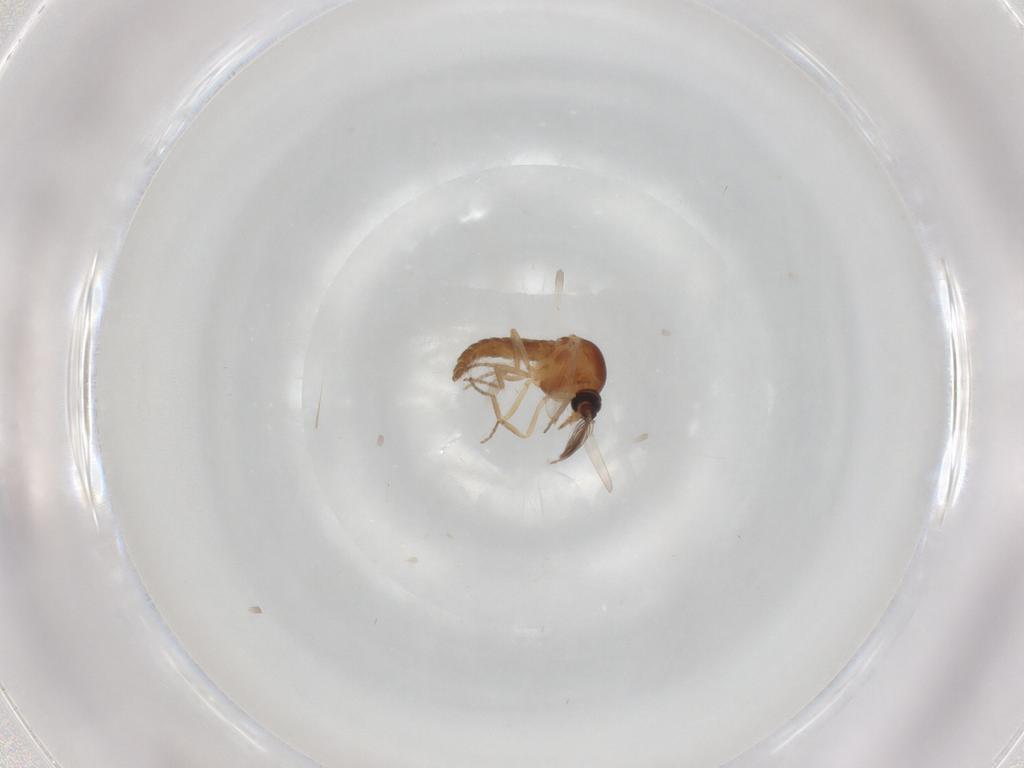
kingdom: Animalia
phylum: Arthropoda
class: Insecta
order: Diptera
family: Ceratopogonidae
